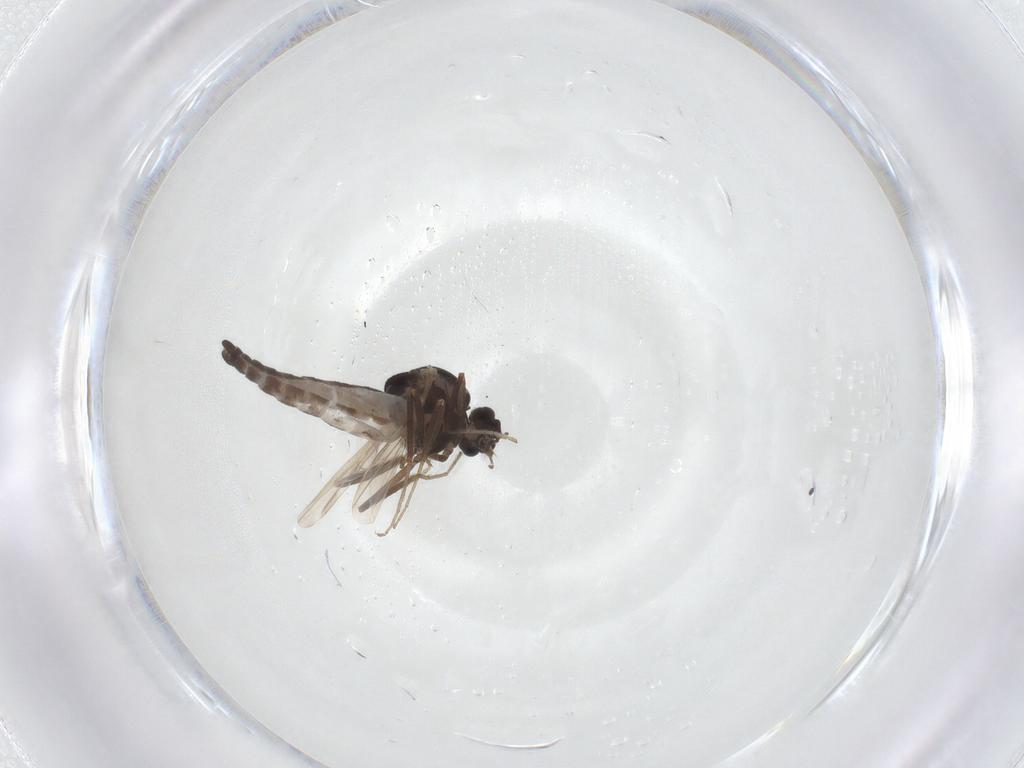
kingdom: Animalia
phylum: Arthropoda
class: Insecta
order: Diptera
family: Ceratopogonidae
